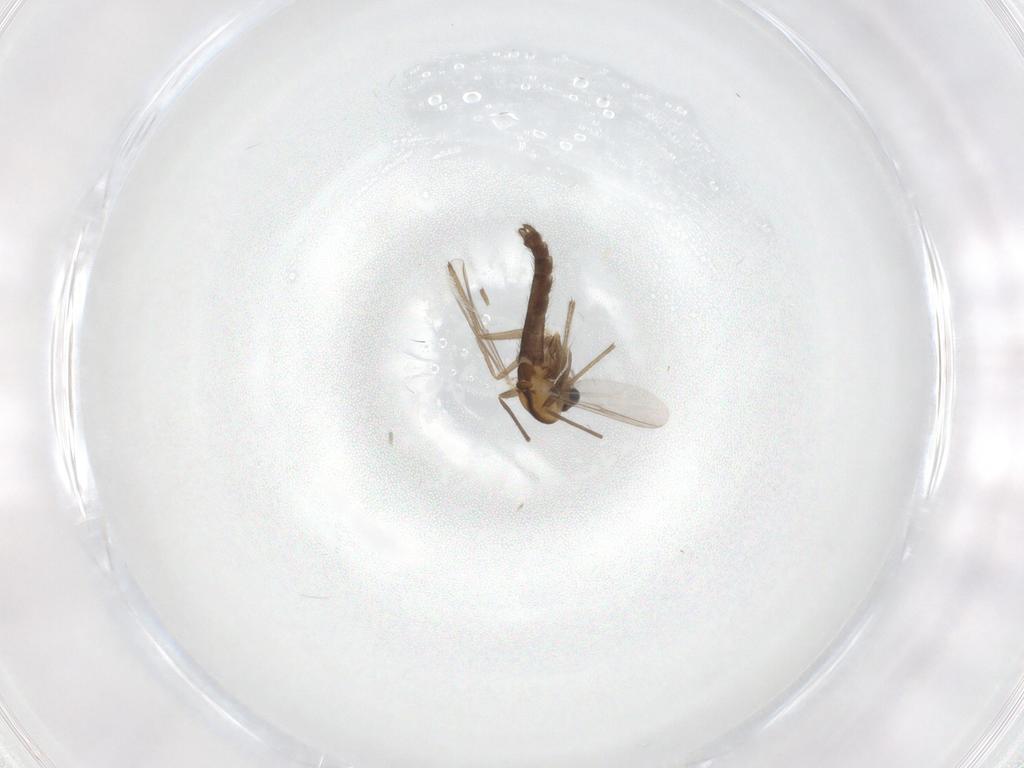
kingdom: Animalia
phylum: Arthropoda
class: Insecta
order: Diptera
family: Chironomidae
